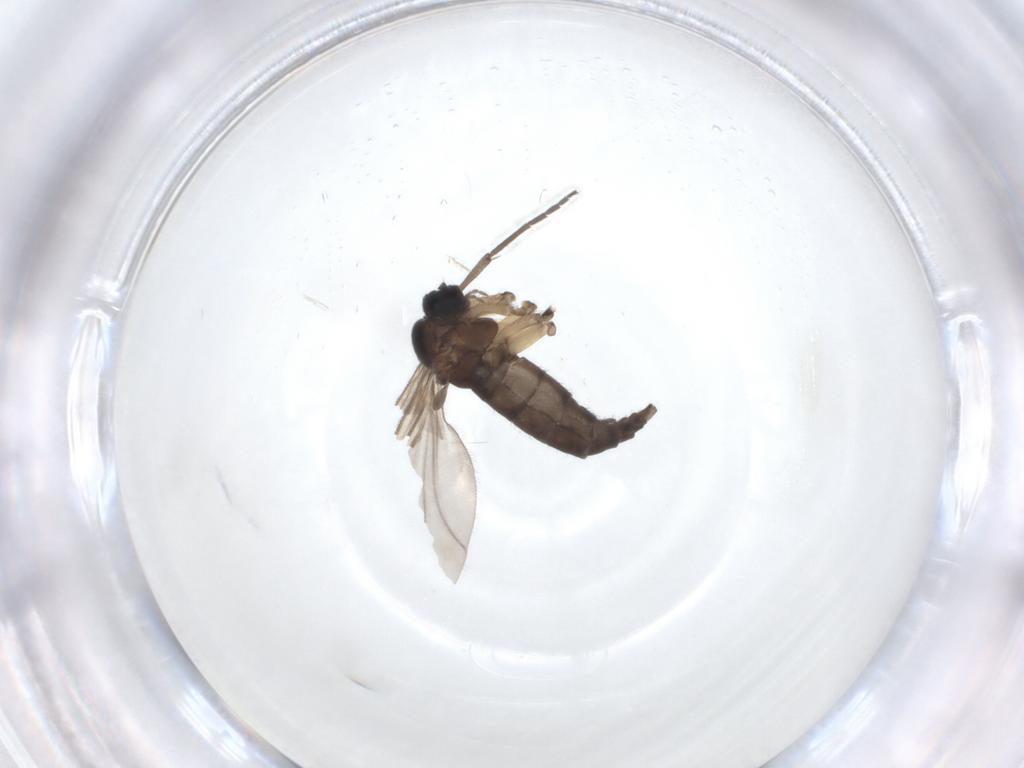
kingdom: Animalia
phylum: Arthropoda
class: Insecta
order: Diptera
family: Sciaridae
